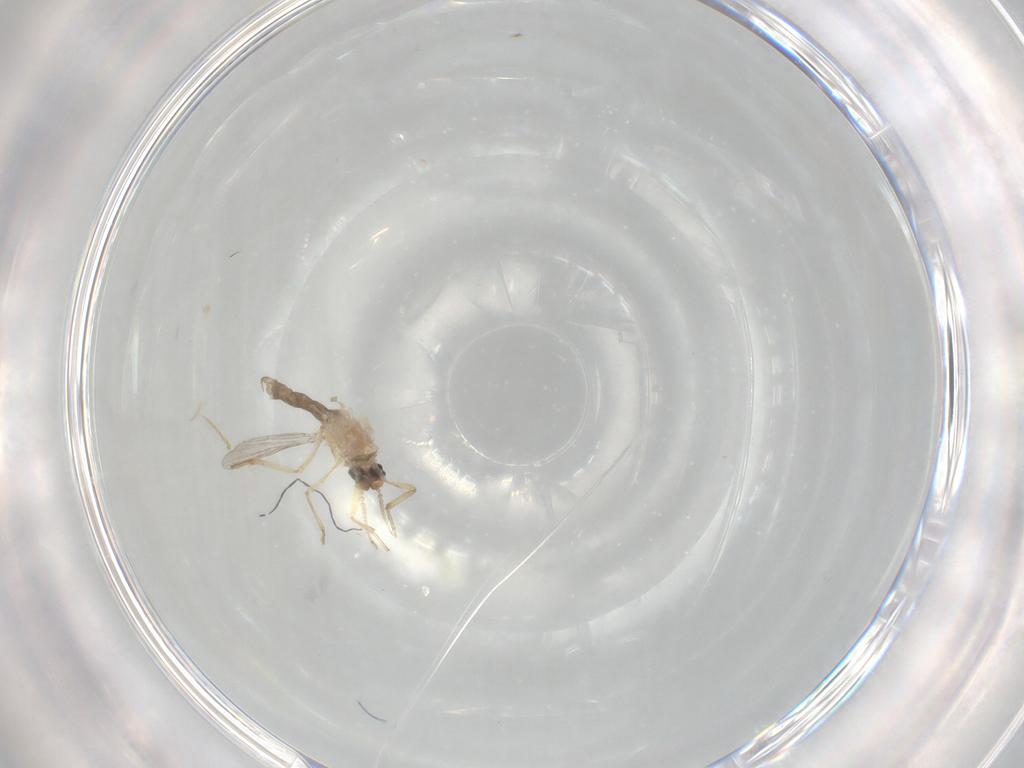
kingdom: Animalia
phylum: Arthropoda
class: Insecta
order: Diptera
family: Ceratopogonidae
